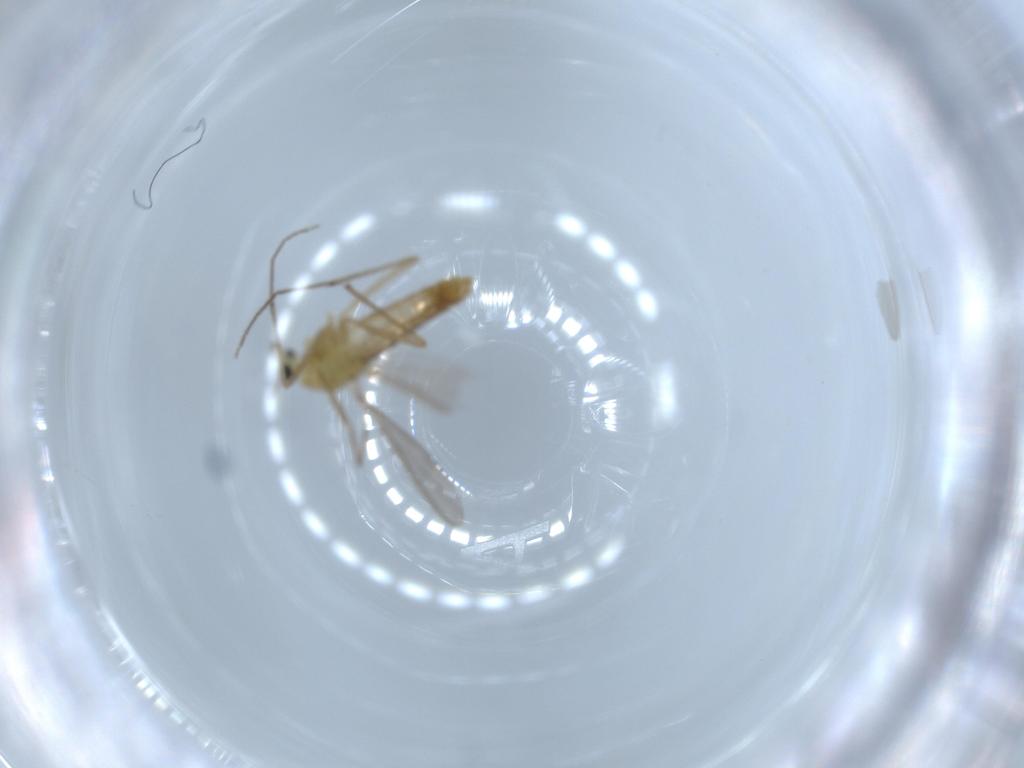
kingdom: Animalia
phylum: Arthropoda
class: Insecta
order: Diptera
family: Chironomidae
